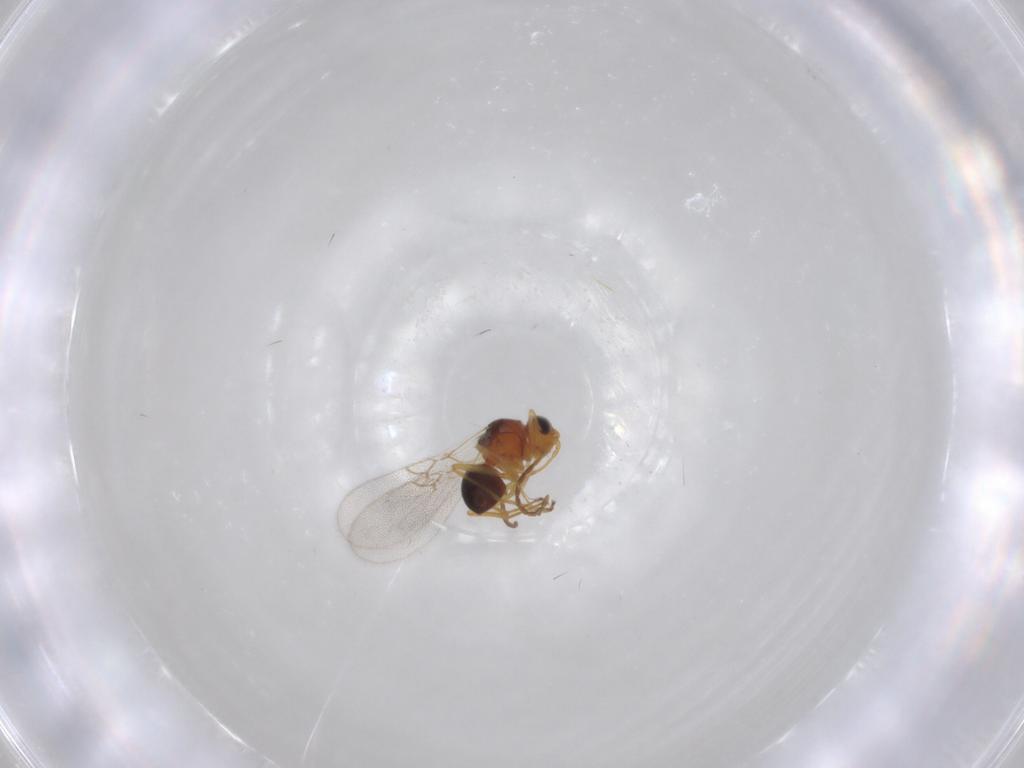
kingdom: Animalia
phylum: Arthropoda
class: Insecta
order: Hymenoptera
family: Figitidae
